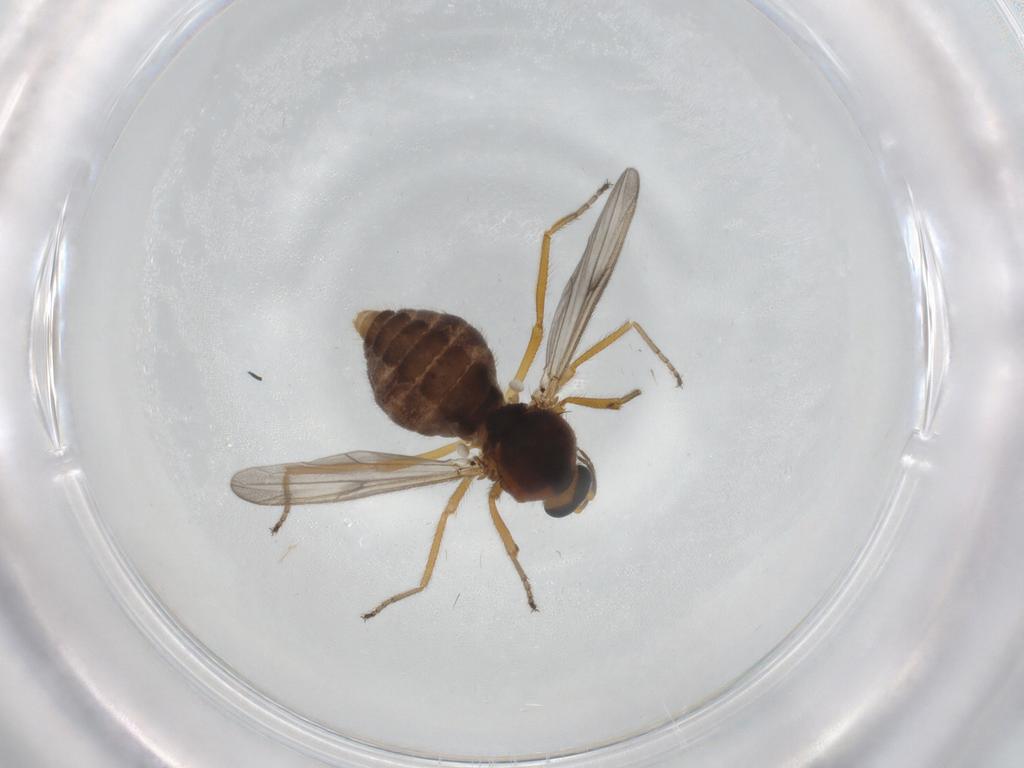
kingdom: Animalia
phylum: Arthropoda
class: Insecta
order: Diptera
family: Ceratopogonidae
